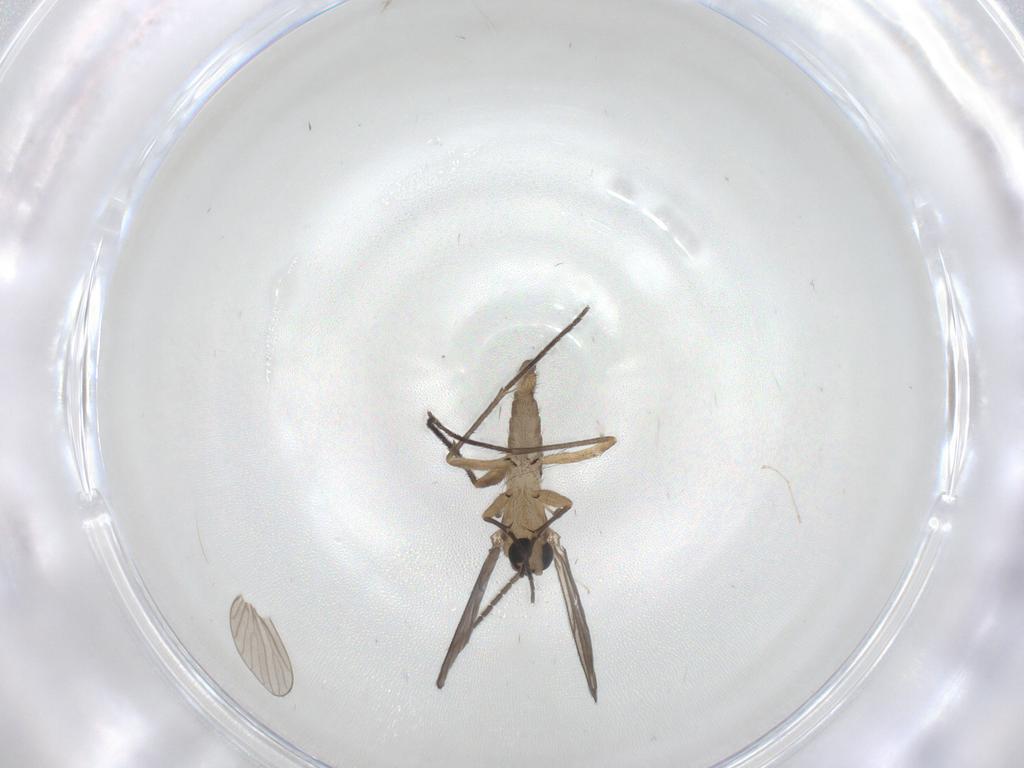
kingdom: Animalia
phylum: Arthropoda
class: Insecta
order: Diptera
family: Sciaridae
